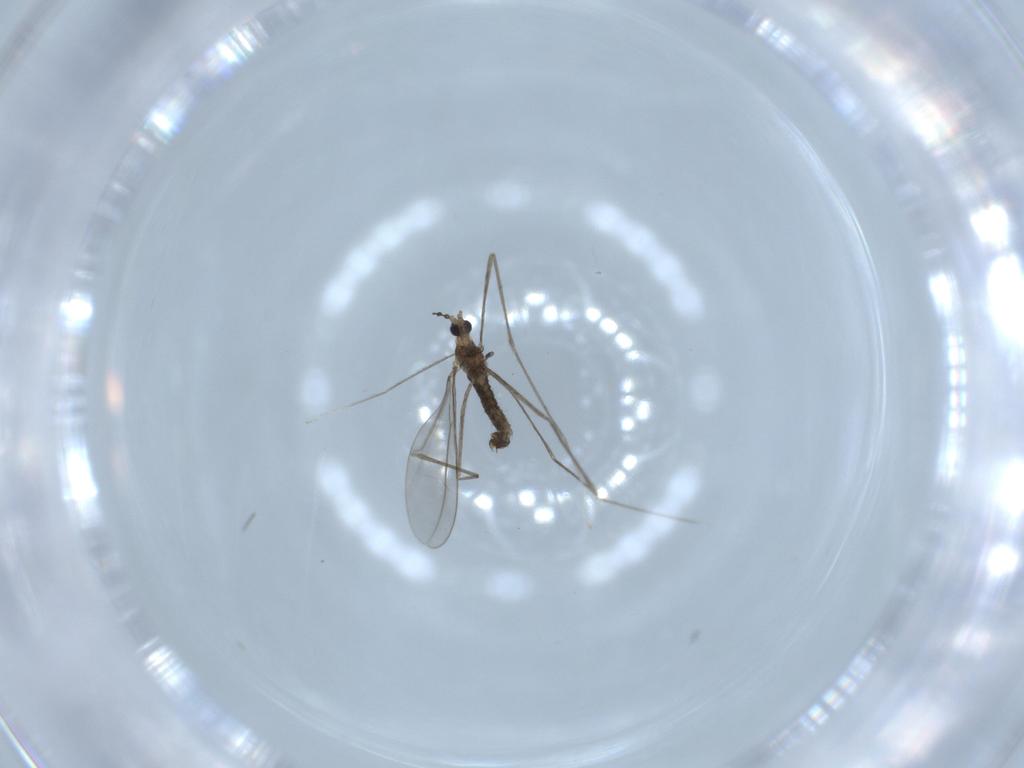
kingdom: Animalia
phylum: Arthropoda
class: Insecta
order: Diptera
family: Cecidomyiidae
